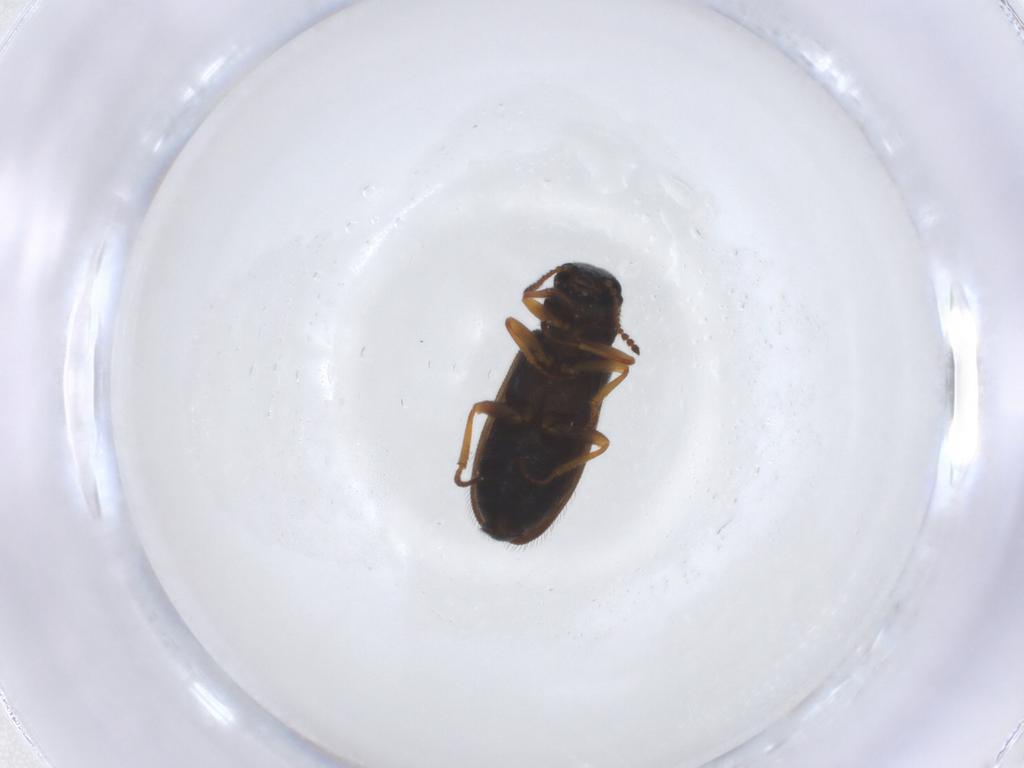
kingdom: Animalia
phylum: Arthropoda
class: Insecta
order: Coleoptera
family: Melyridae
